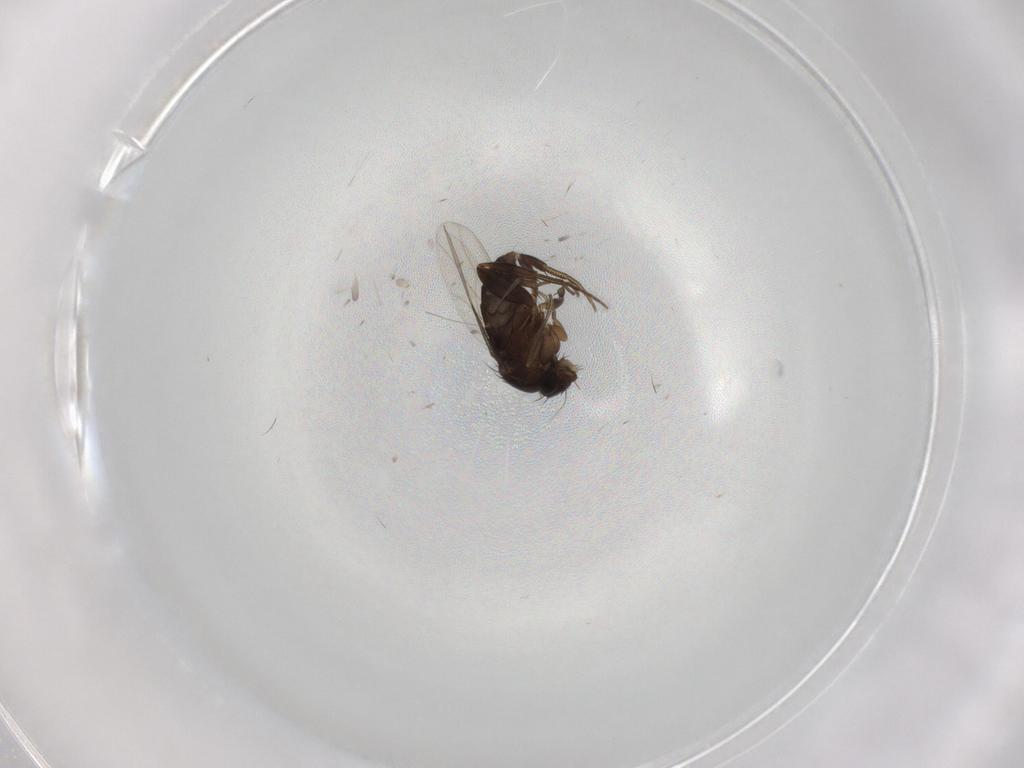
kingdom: Animalia
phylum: Arthropoda
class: Insecta
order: Diptera
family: Phoridae
